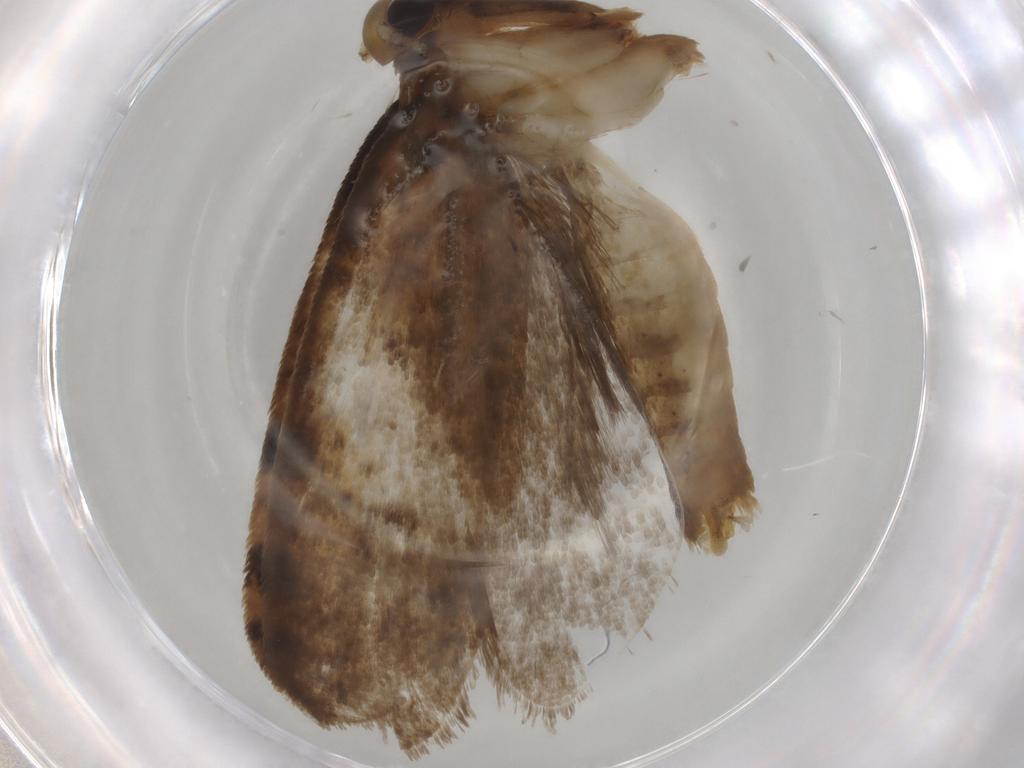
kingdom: Animalia
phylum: Arthropoda
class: Insecta
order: Lepidoptera
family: Tineidae
